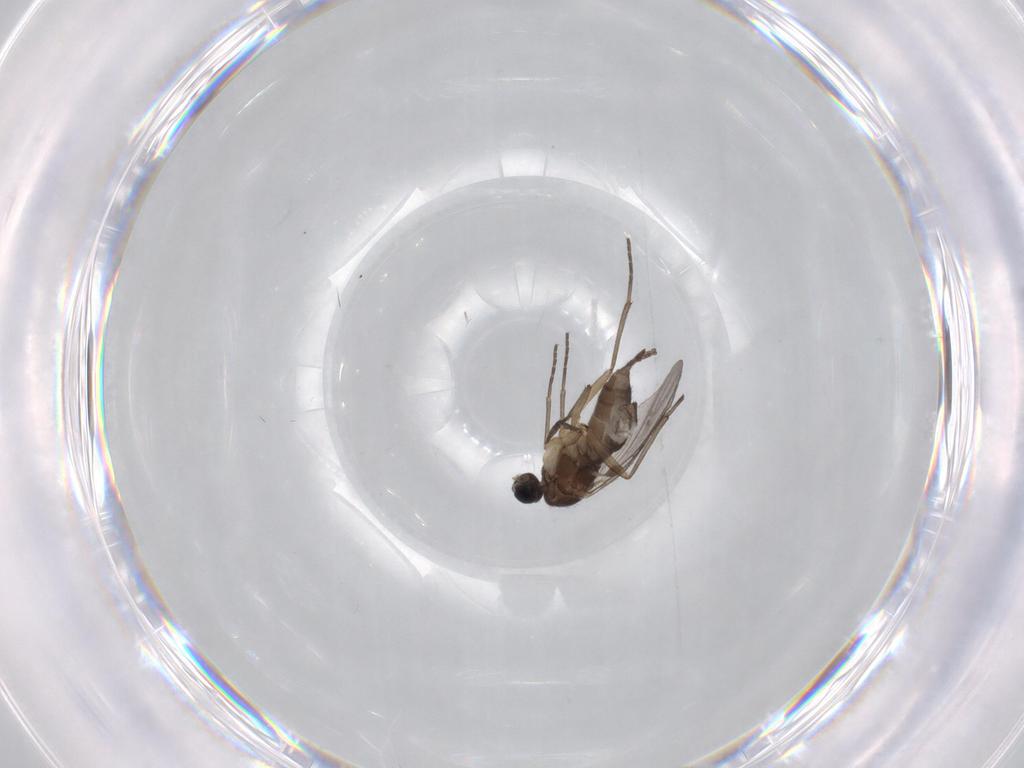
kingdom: Animalia
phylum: Arthropoda
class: Insecta
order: Diptera
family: Sciaridae
